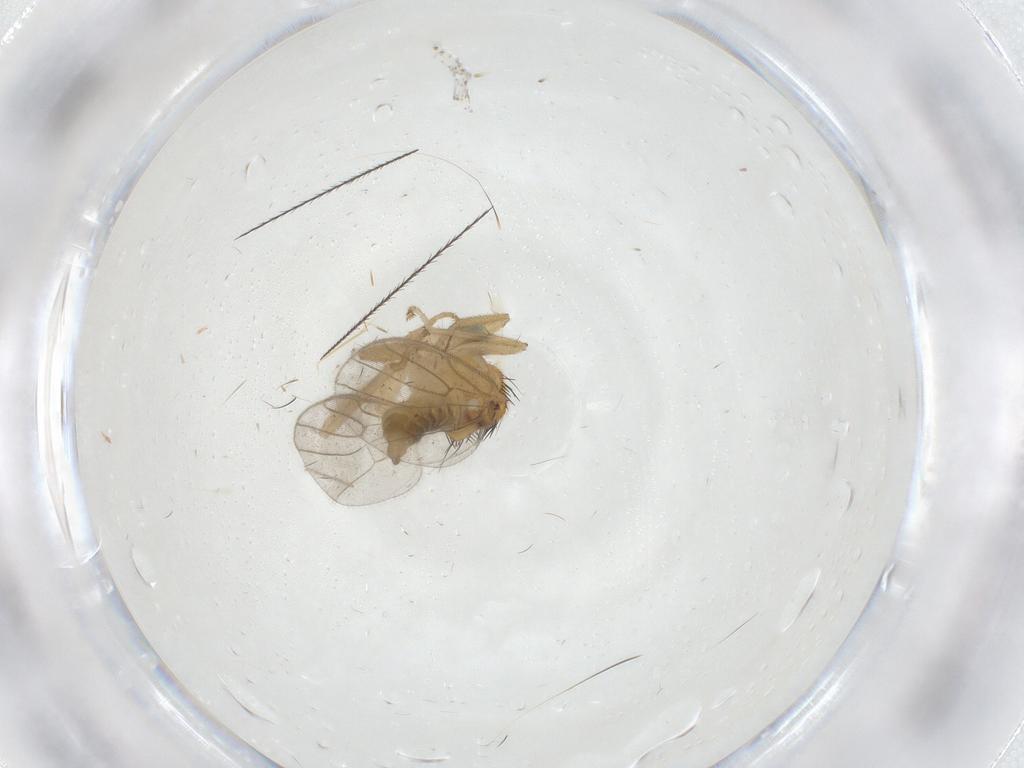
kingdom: Animalia
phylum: Arthropoda
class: Insecta
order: Diptera
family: Hybotidae
